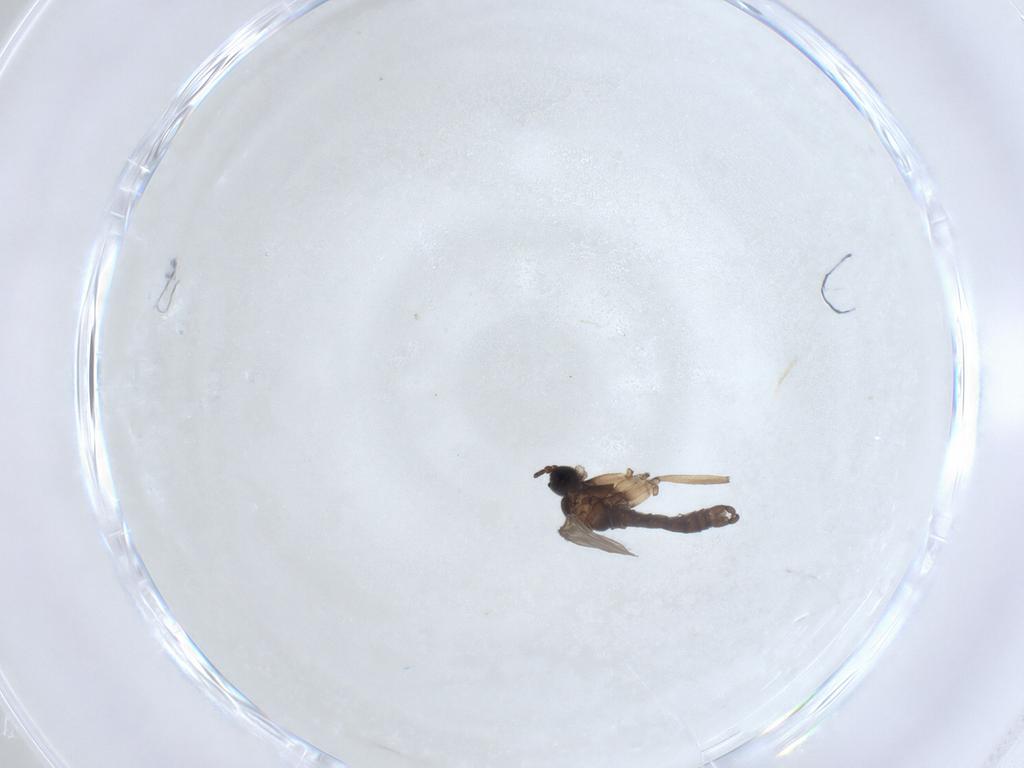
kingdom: Animalia
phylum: Arthropoda
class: Insecta
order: Diptera
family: Sciaridae
